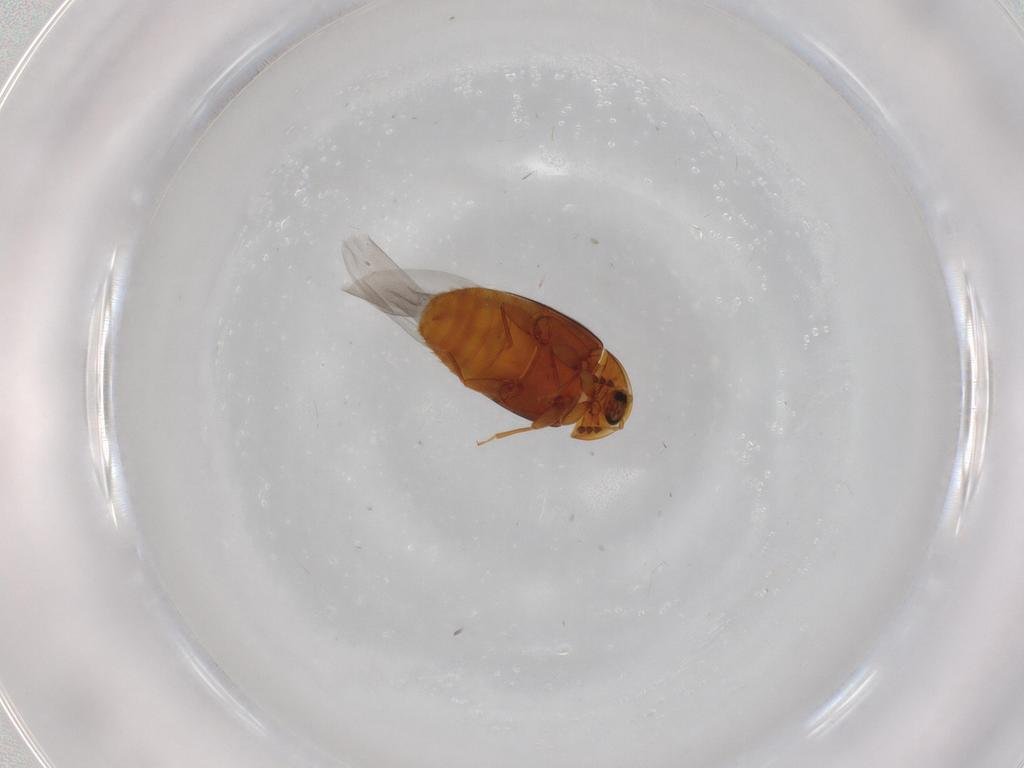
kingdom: Animalia
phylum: Arthropoda
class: Insecta
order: Coleoptera
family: Corylophidae
